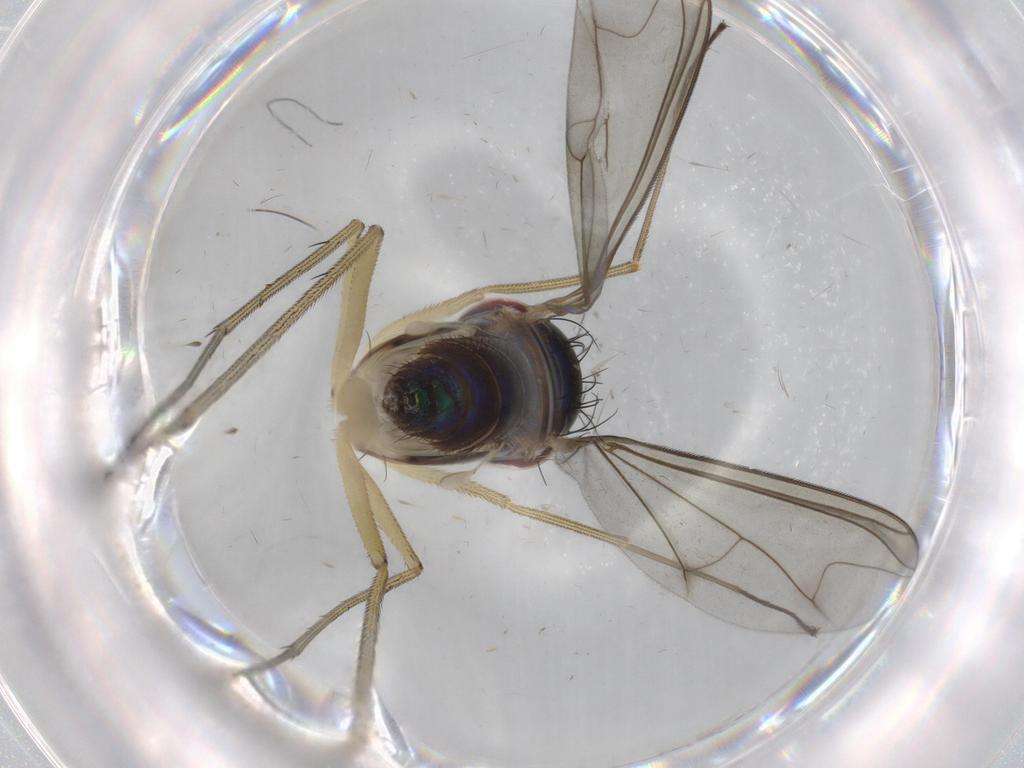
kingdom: Animalia
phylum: Arthropoda
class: Insecta
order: Diptera
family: Dolichopodidae
